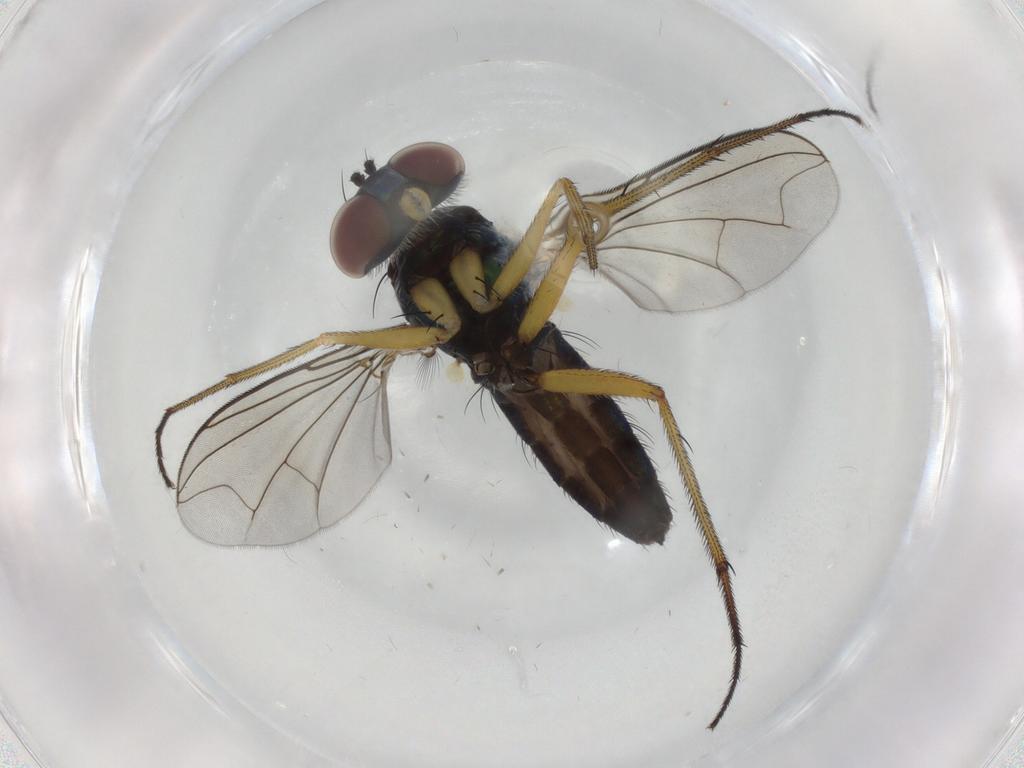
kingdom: Animalia
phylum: Arthropoda
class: Insecta
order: Diptera
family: Dolichopodidae
